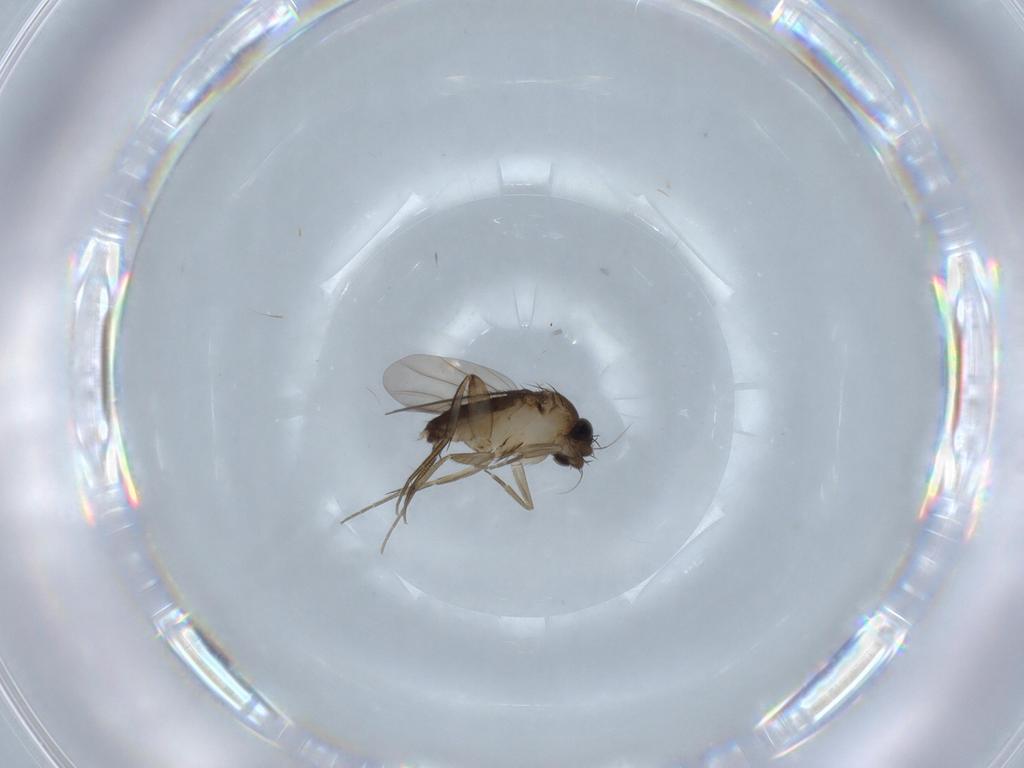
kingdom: Animalia
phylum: Arthropoda
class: Insecta
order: Diptera
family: Phoridae
